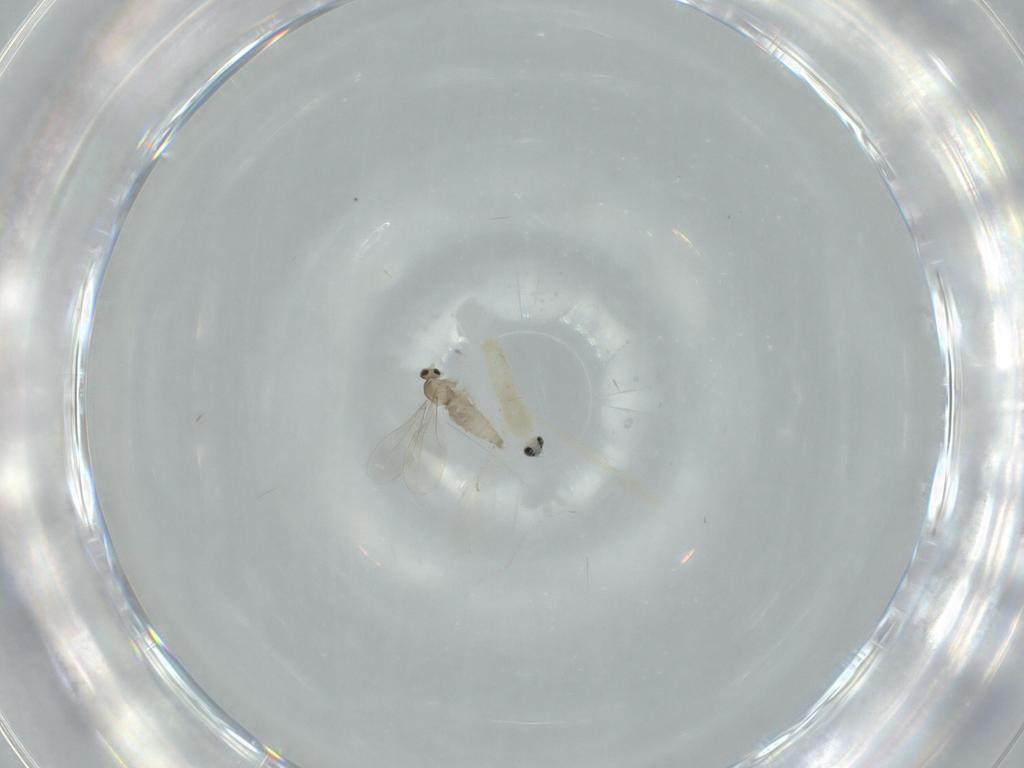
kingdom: Animalia
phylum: Arthropoda
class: Insecta
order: Diptera
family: Cecidomyiidae
